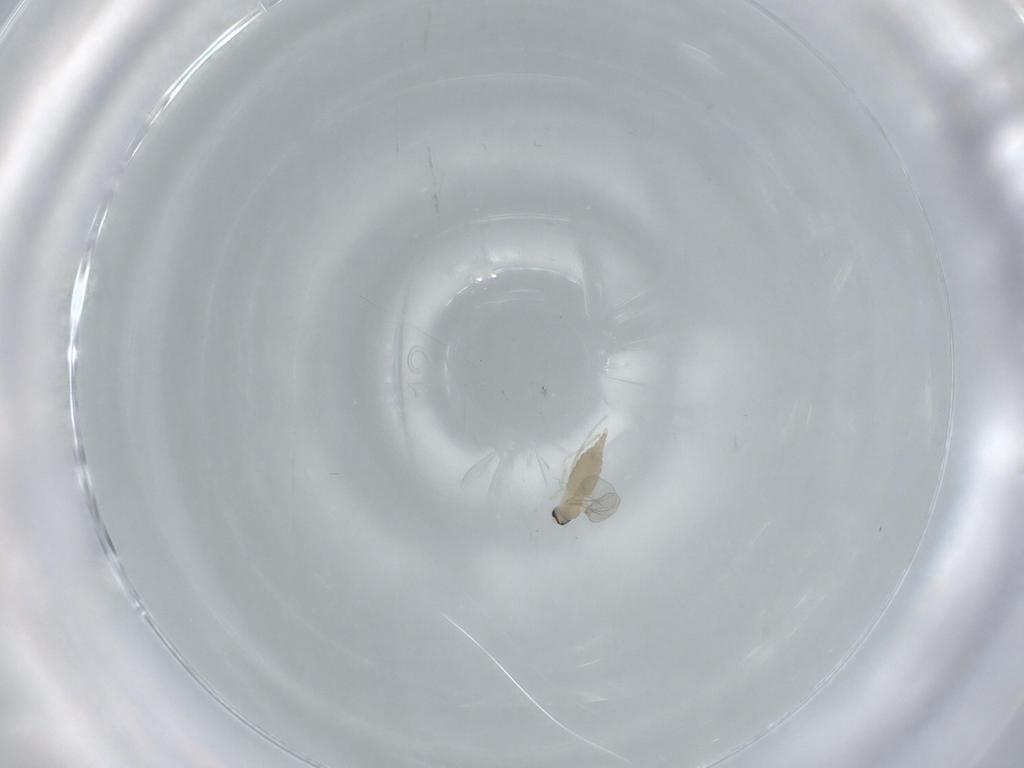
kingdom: Animalia
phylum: Arthropoda
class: Insecta
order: Diptera
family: Cecidomyiidae
